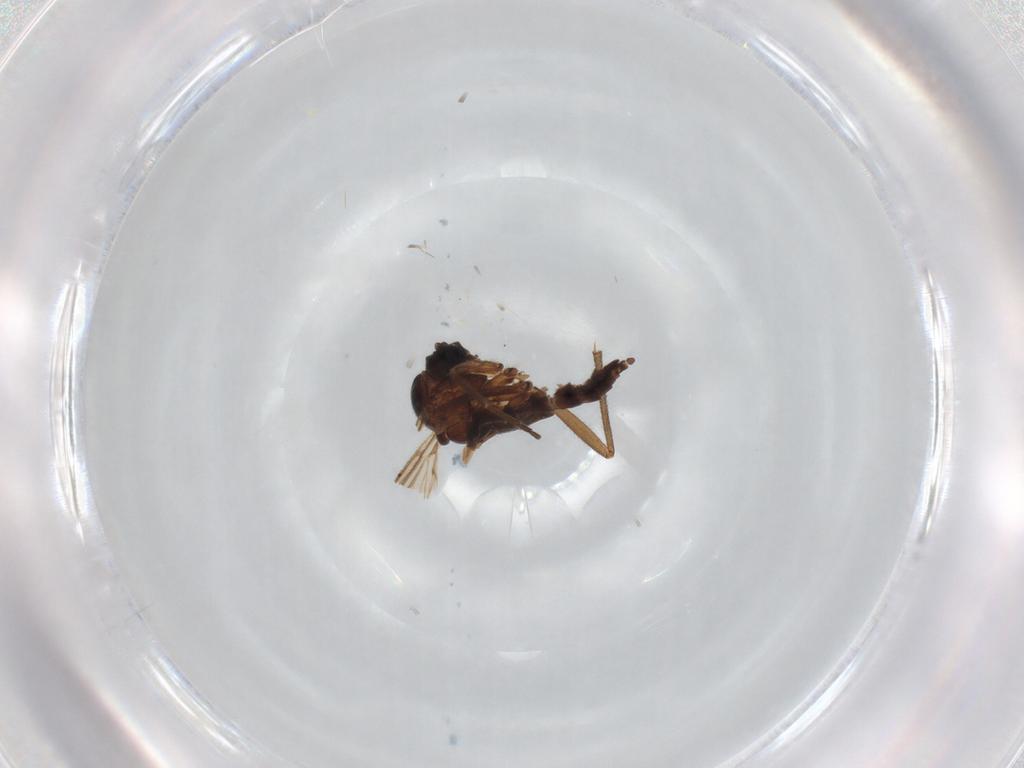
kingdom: Animalia
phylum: Arthropoda
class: Insecta
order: Diptera
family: Sciaridae
